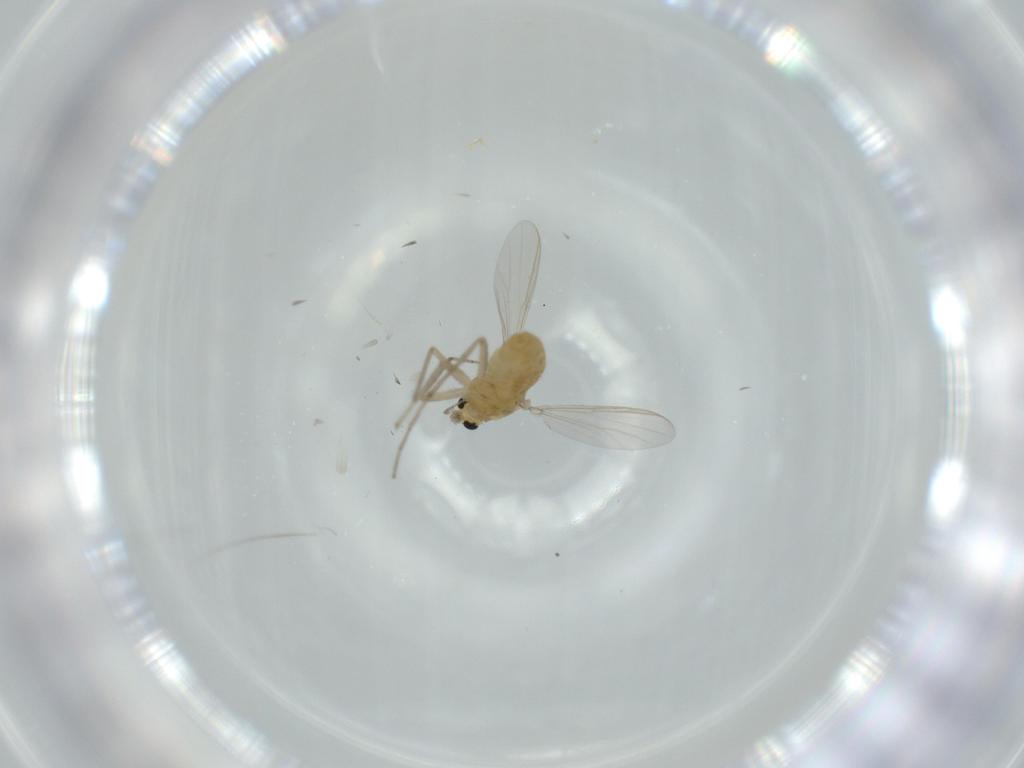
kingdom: Animalia
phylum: Arthropoda
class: Insecta
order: Diptera
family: Chironomidae
